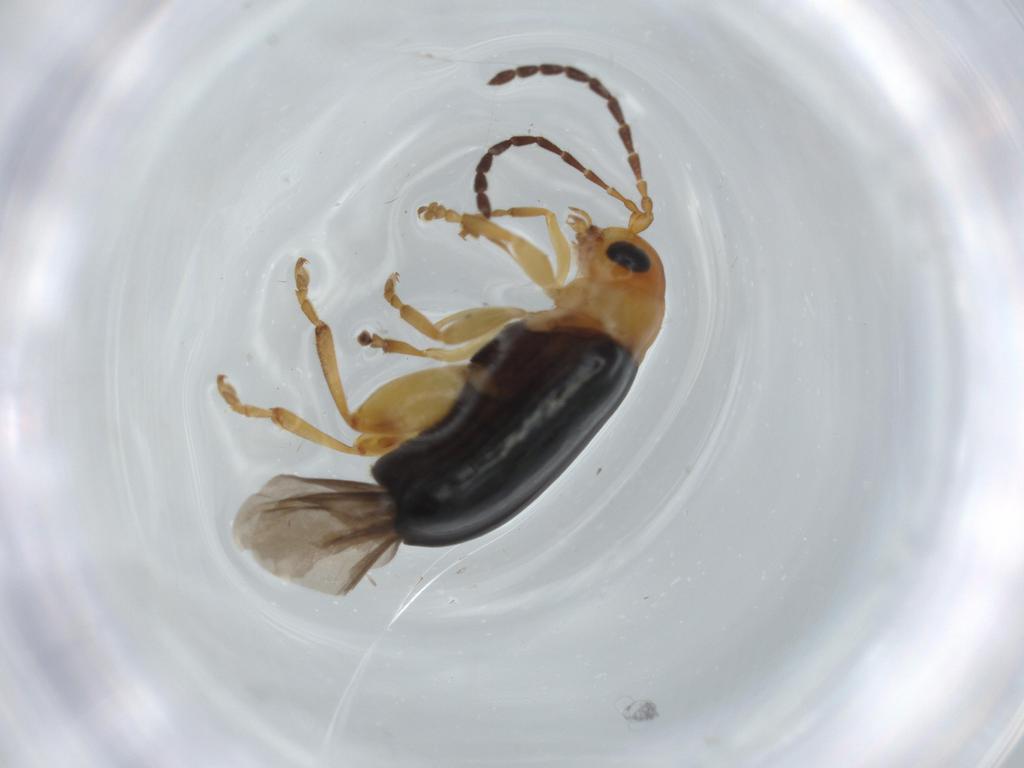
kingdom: Animalia
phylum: Arthropoda
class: Insecta
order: Coleoptera
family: Chrysomelidae
